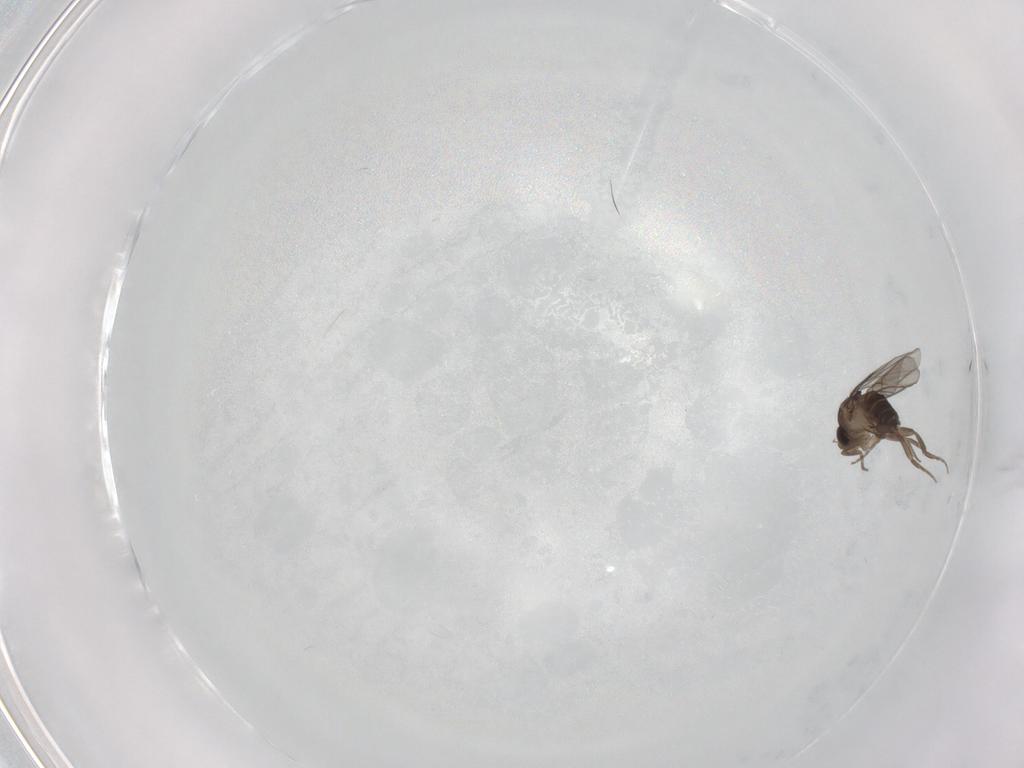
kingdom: Animalia
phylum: Arthropoda
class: Insecta
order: Diptera
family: Phoridae
